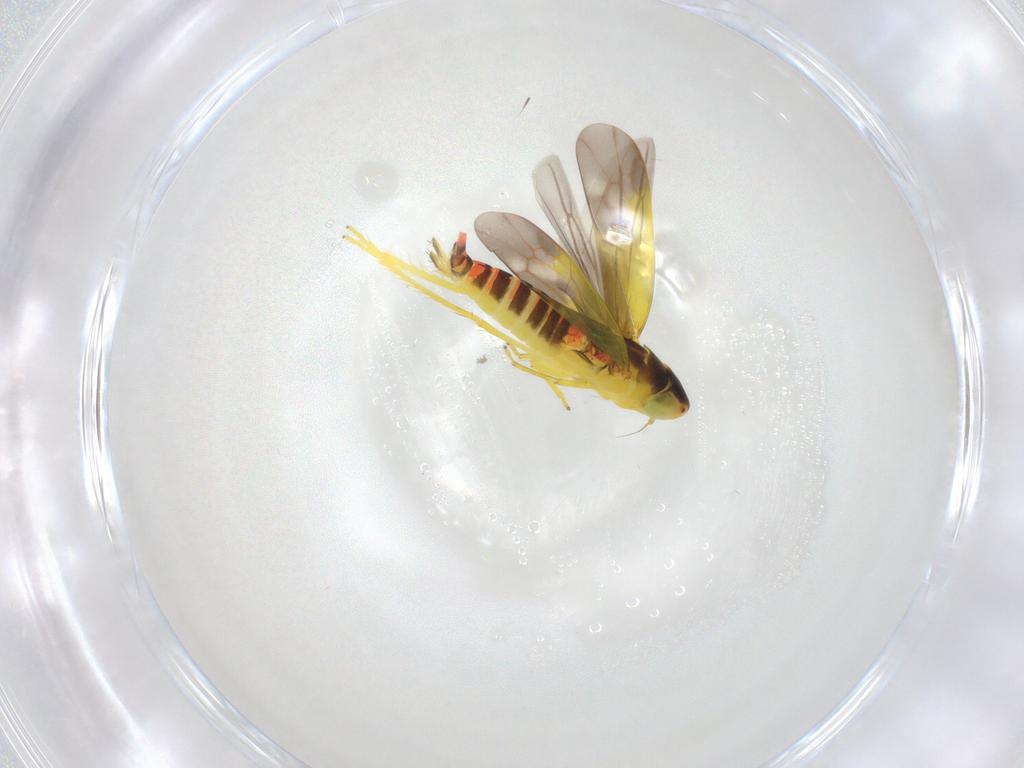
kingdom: Animalia
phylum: Arthropoda
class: Insecta
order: Hemiptera
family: Cicadellidae
